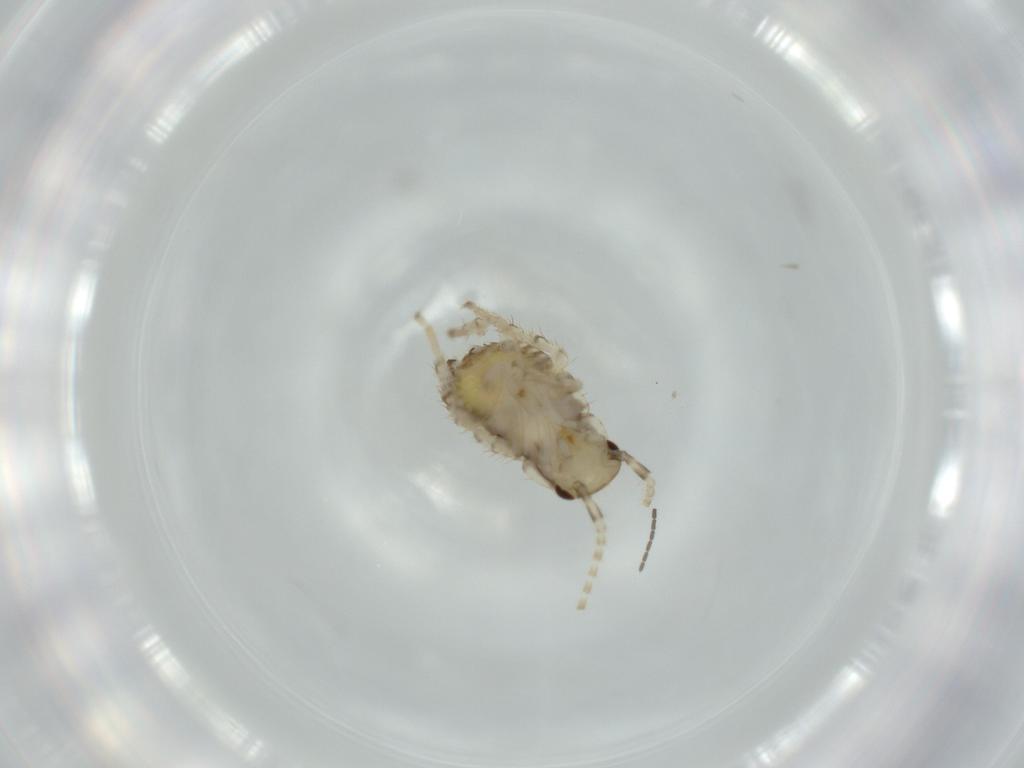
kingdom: Animalia
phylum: Arthropoda
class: Insecta
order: Blattodea
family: Ectobiidae
